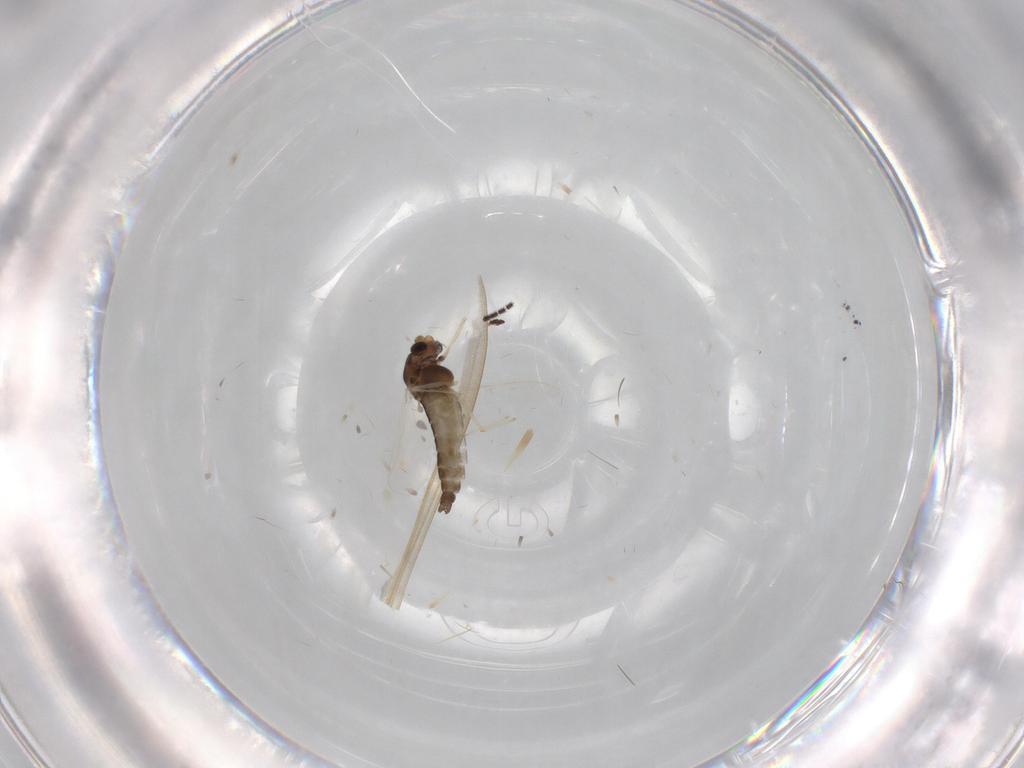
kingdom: Animalia
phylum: Arthropoda
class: Insecta
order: Diptera
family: Chironomidae
